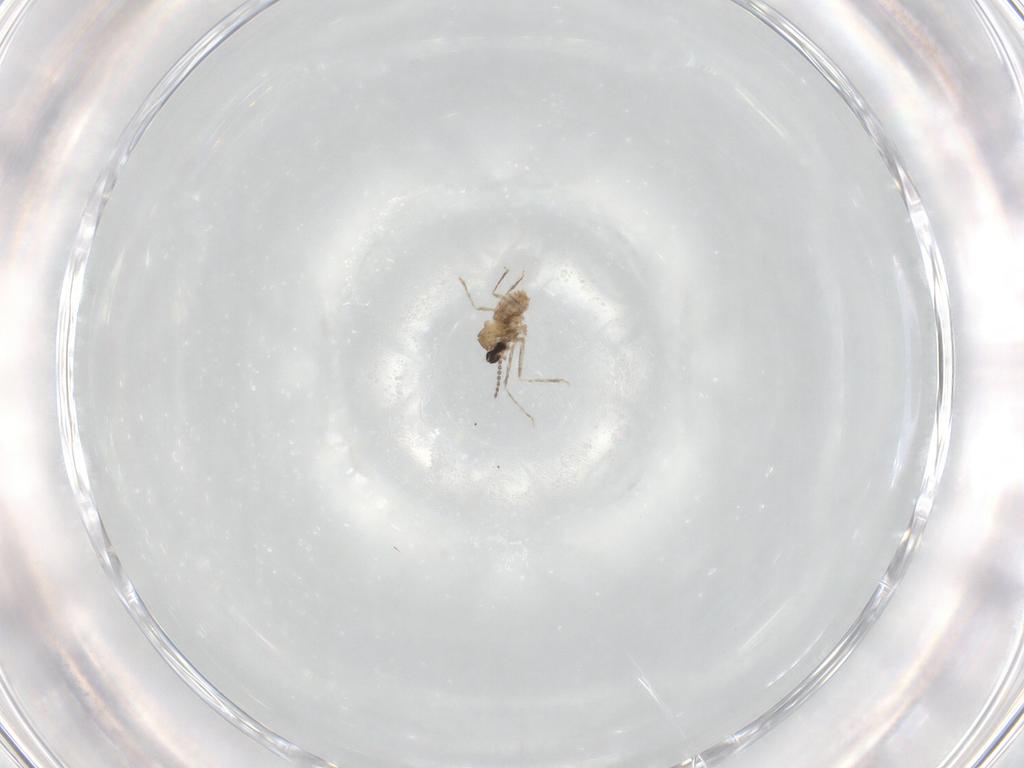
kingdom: Animalia
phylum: Arthropoda
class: Insecta
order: Diptera
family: Cecidomyiidae
